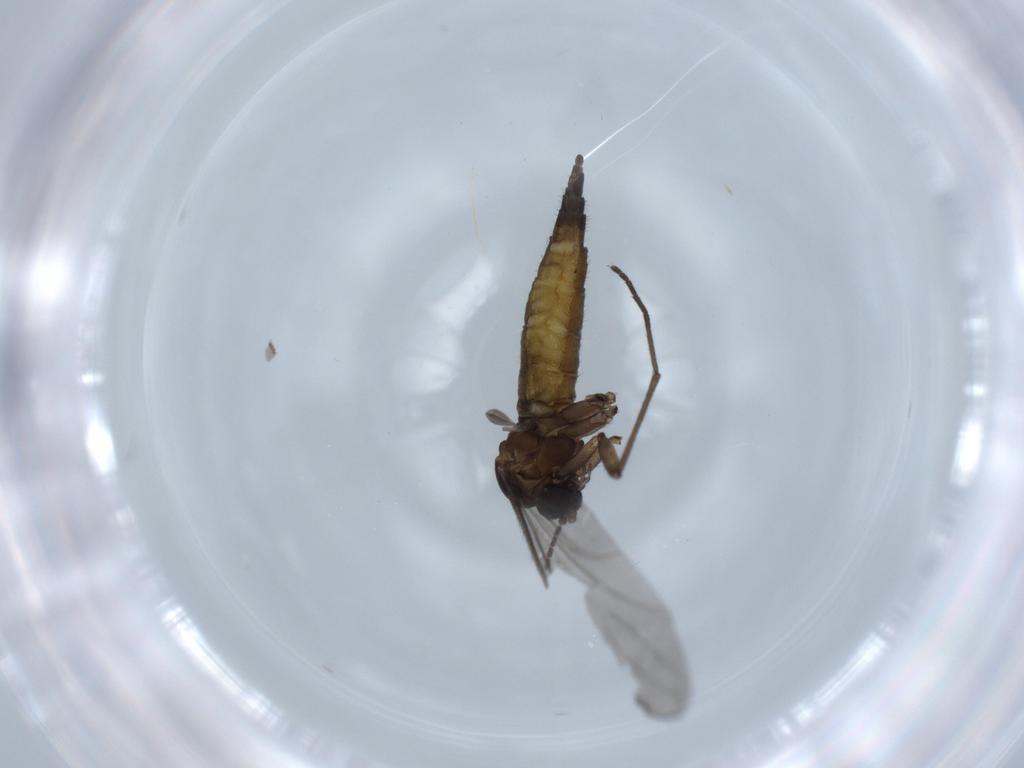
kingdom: Animalia
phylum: Arthropoda
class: Insecta
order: Diptera
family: Sciaridae
